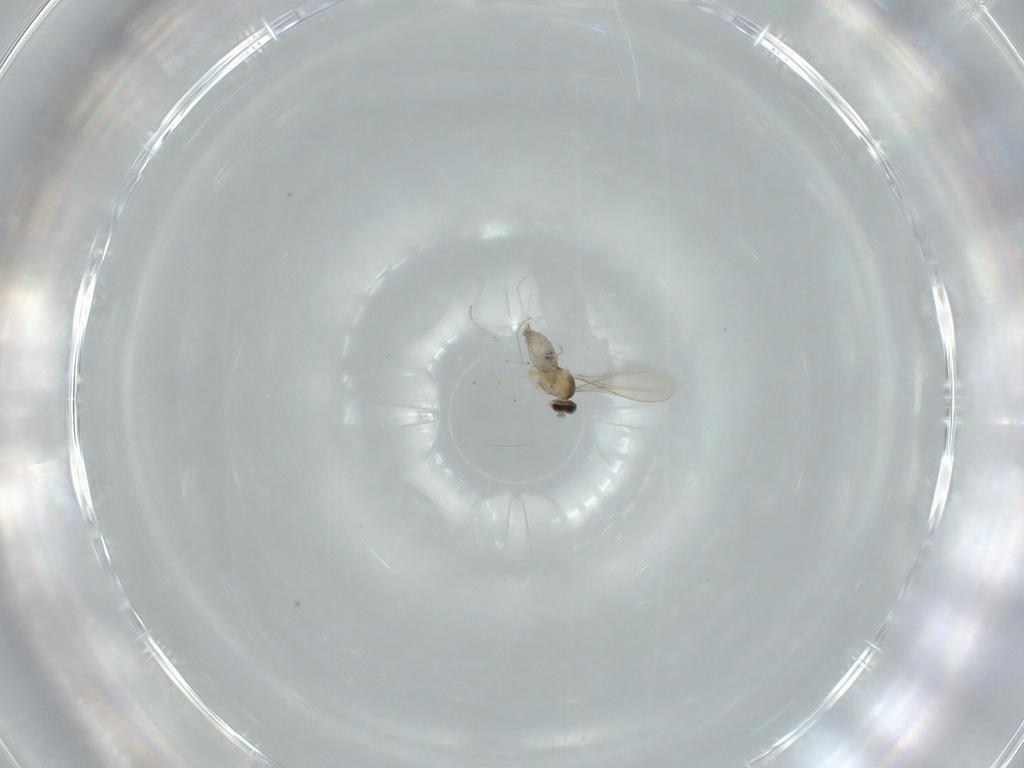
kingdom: Animalia
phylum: Arthropoda
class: Insecta
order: Diptera
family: Cecidomyiidae
